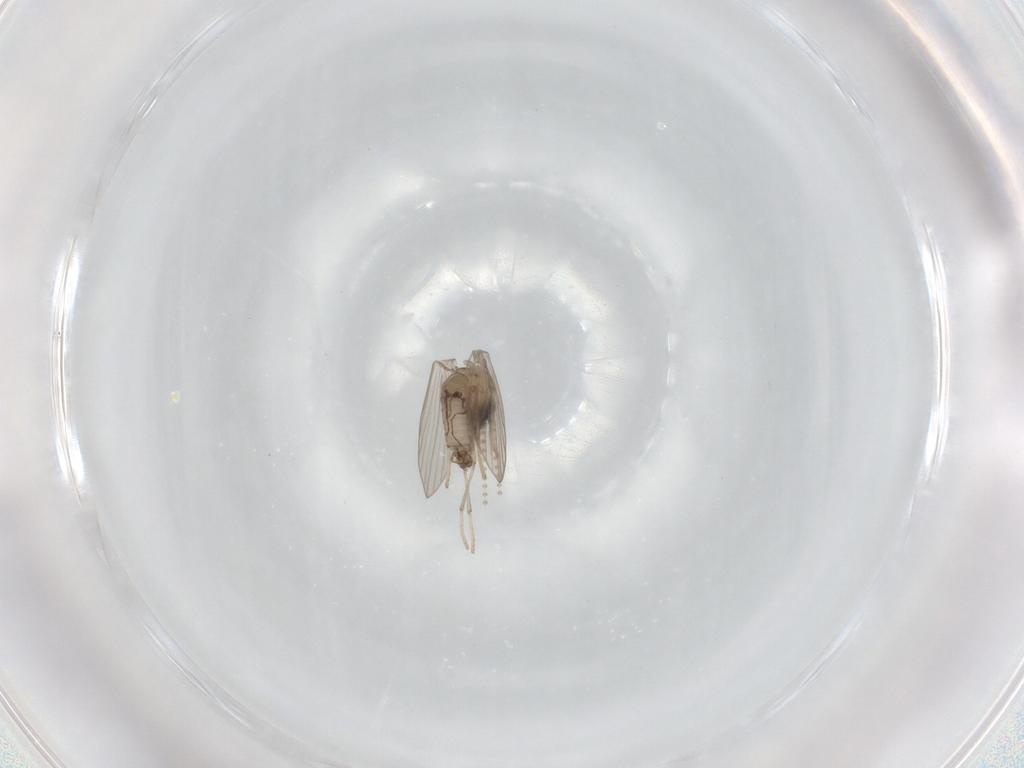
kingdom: Animalia
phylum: Arthropoda
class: Insecta
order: Diptera
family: Psychodidae
